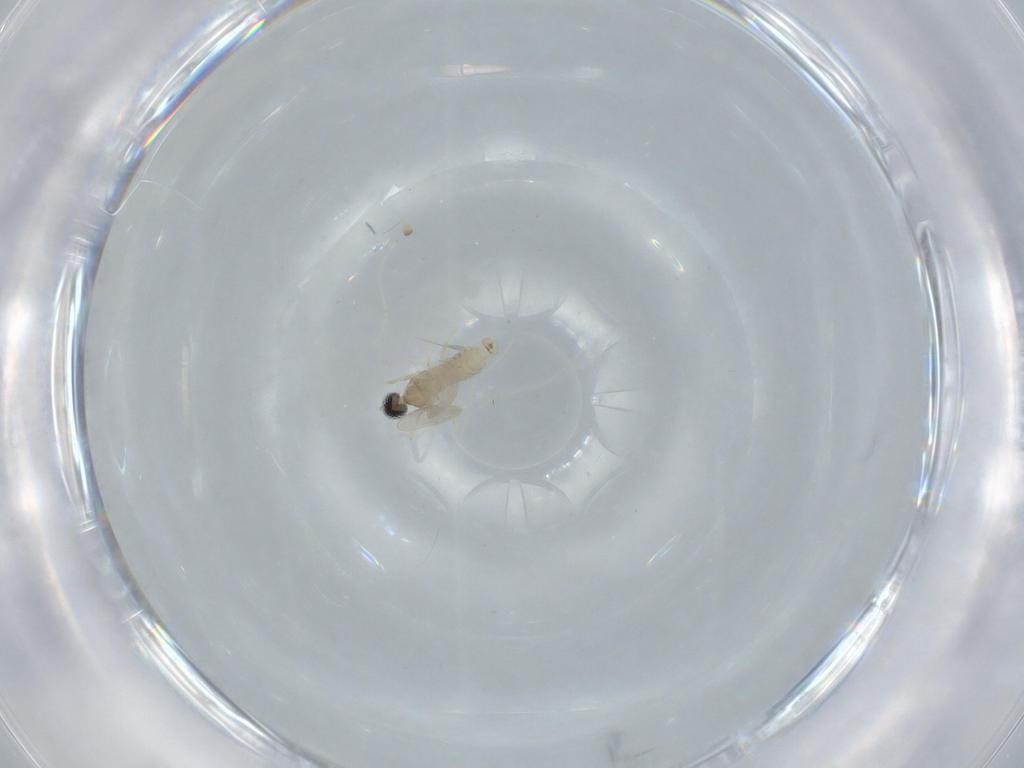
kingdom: Animalia
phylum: Arthropoda
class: Insecta
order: Diptera
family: Cecidomyiidae
